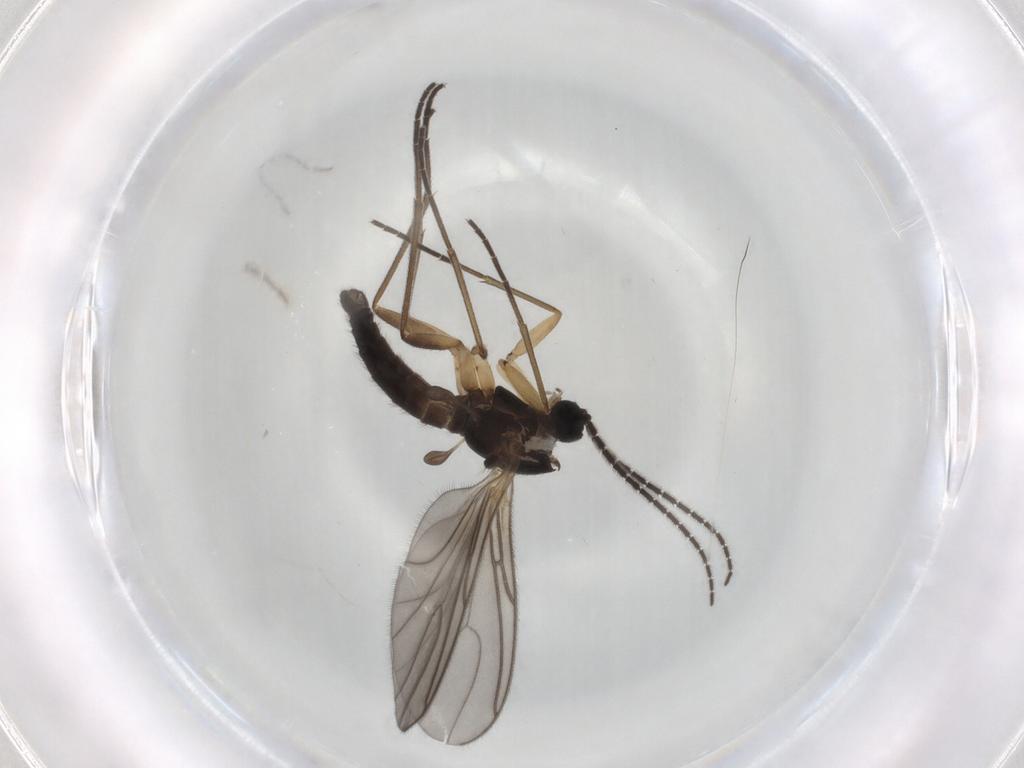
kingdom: Animalia
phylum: Arthropoda
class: Insecta
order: Diptera
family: Sciaridae
